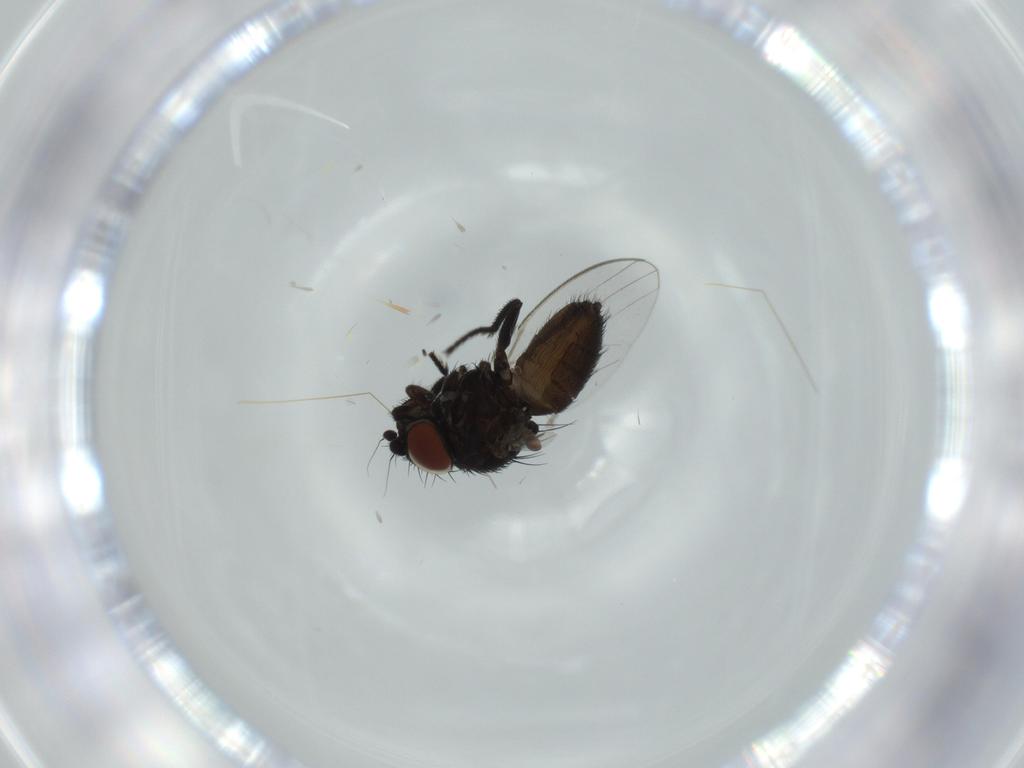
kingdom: Animalia
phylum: Arthropoda
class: Insecta
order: Diptera
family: Milichiidae
